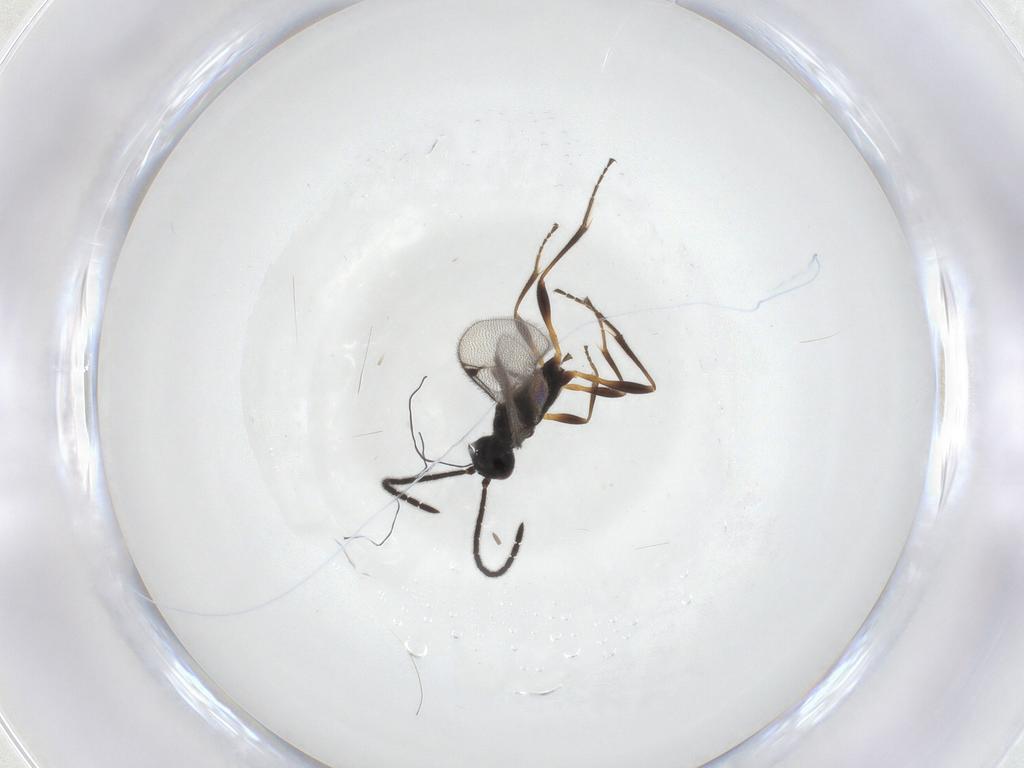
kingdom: Animalia
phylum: Arthropoda
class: Insecta
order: Hymenoptera
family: Proctotrupidae
